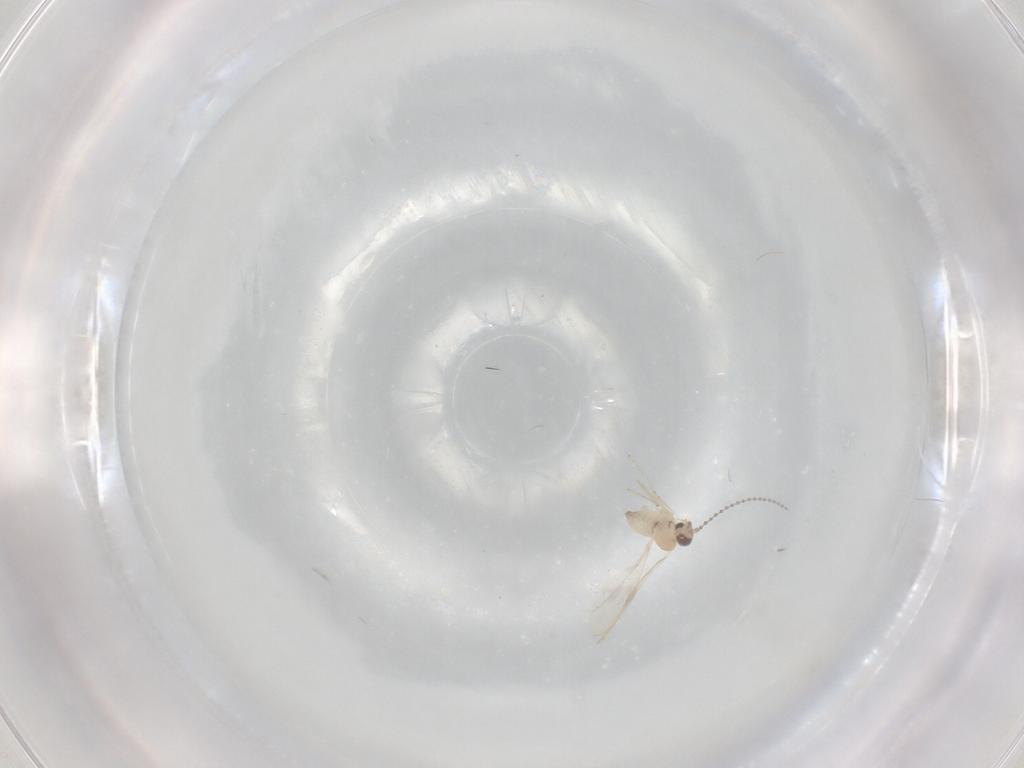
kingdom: Animalia
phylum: Arthropoda
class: Insecta
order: Diptera
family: Cecidomyiidae
